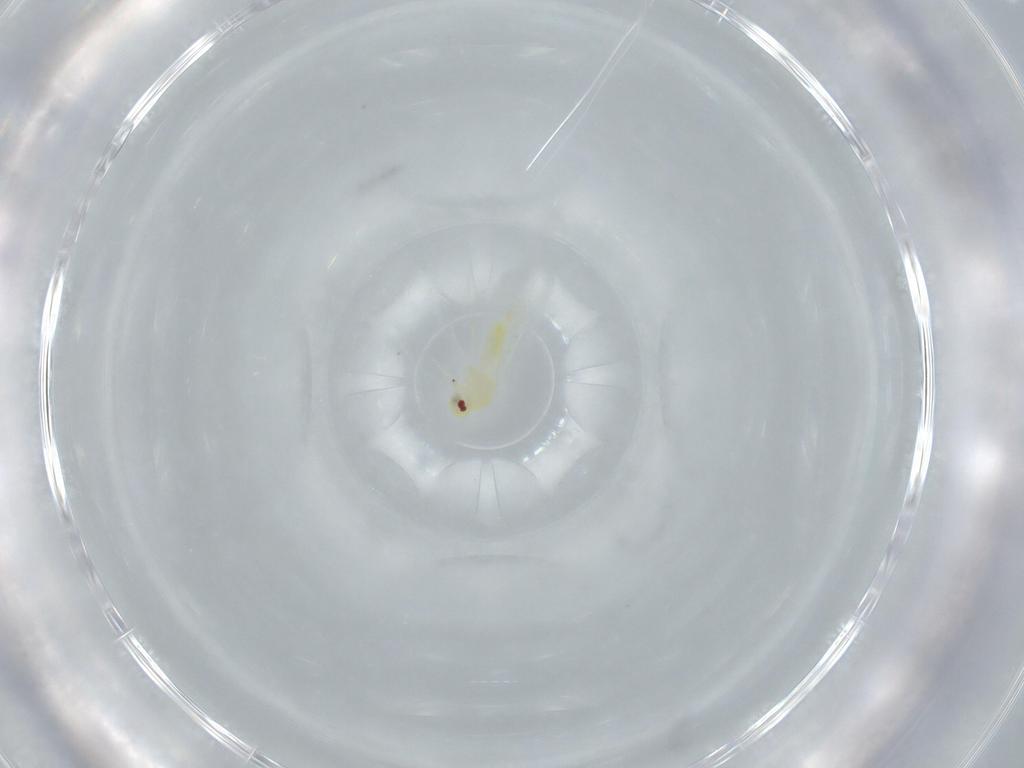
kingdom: Animalia
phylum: Arthropoda
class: Insecta
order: Hemiptera
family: Aleyrodidae
